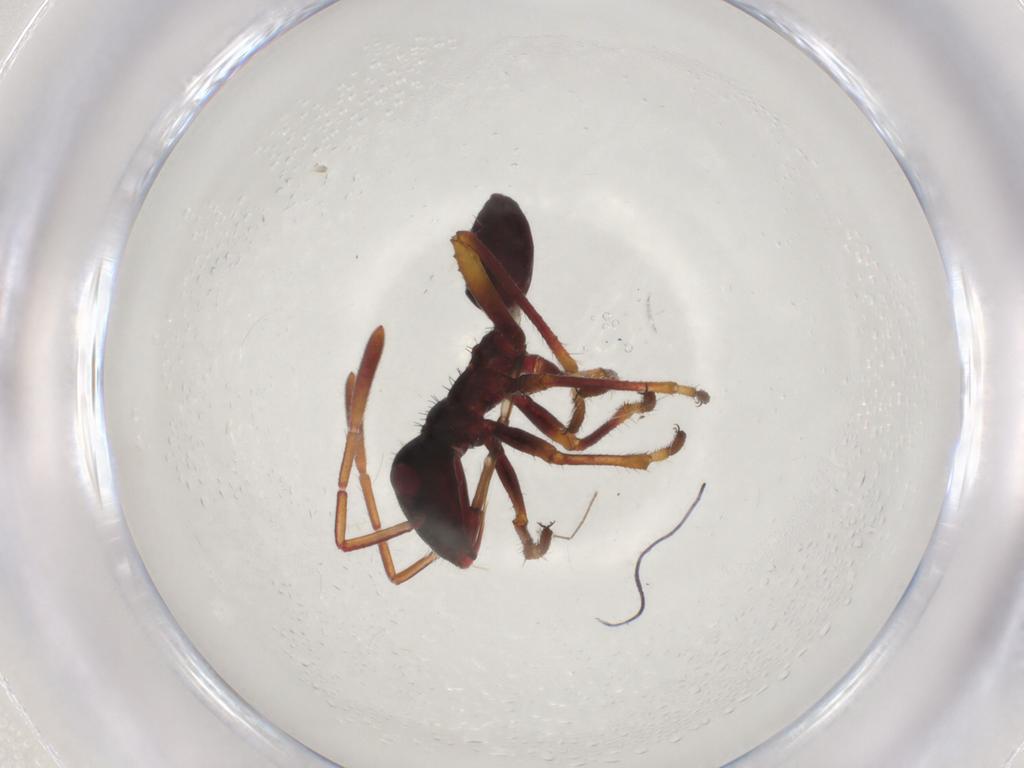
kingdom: Animalia
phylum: Arthropoda
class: Insecta
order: Hemiptera
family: Alydidae
